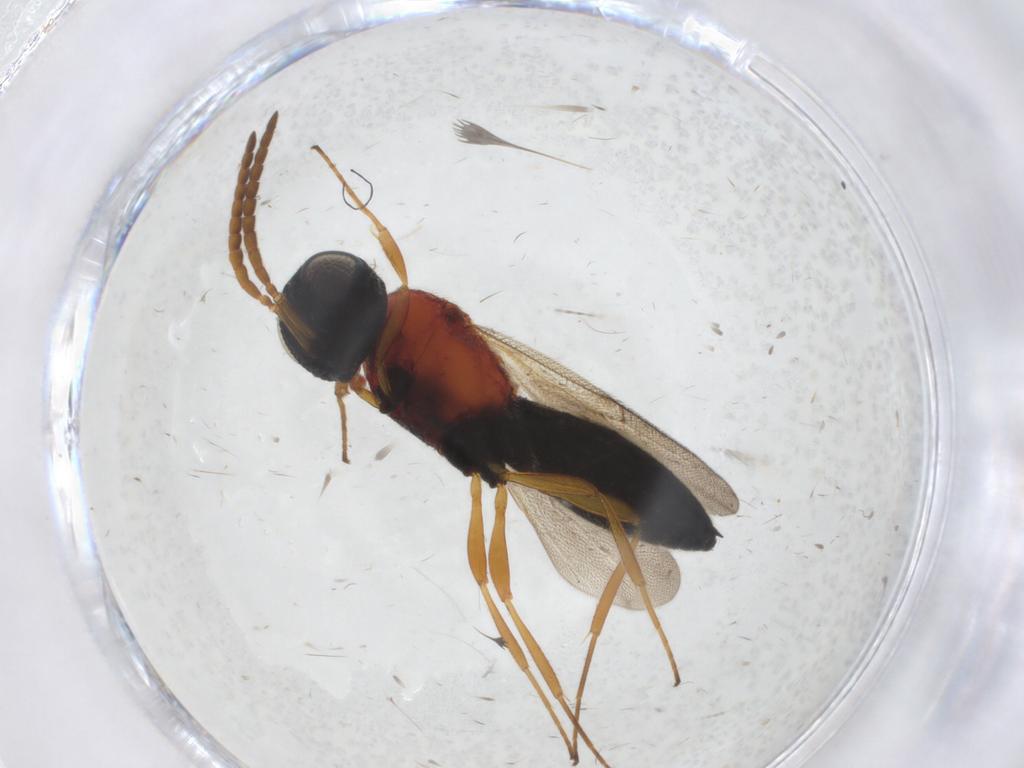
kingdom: Animalia
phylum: Arthropoda
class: Insecta
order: Hymenoptera
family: Scelionidae
